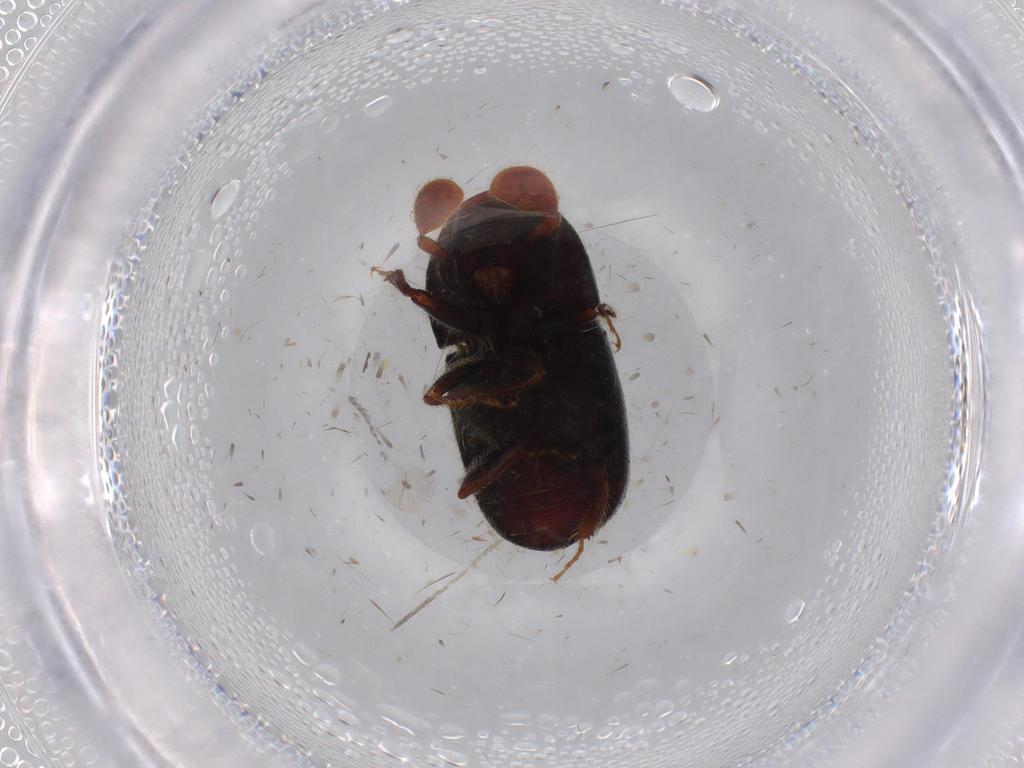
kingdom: Animalia
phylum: Arthropoda
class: Insecta
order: Coleoptera
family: Curculionidae
